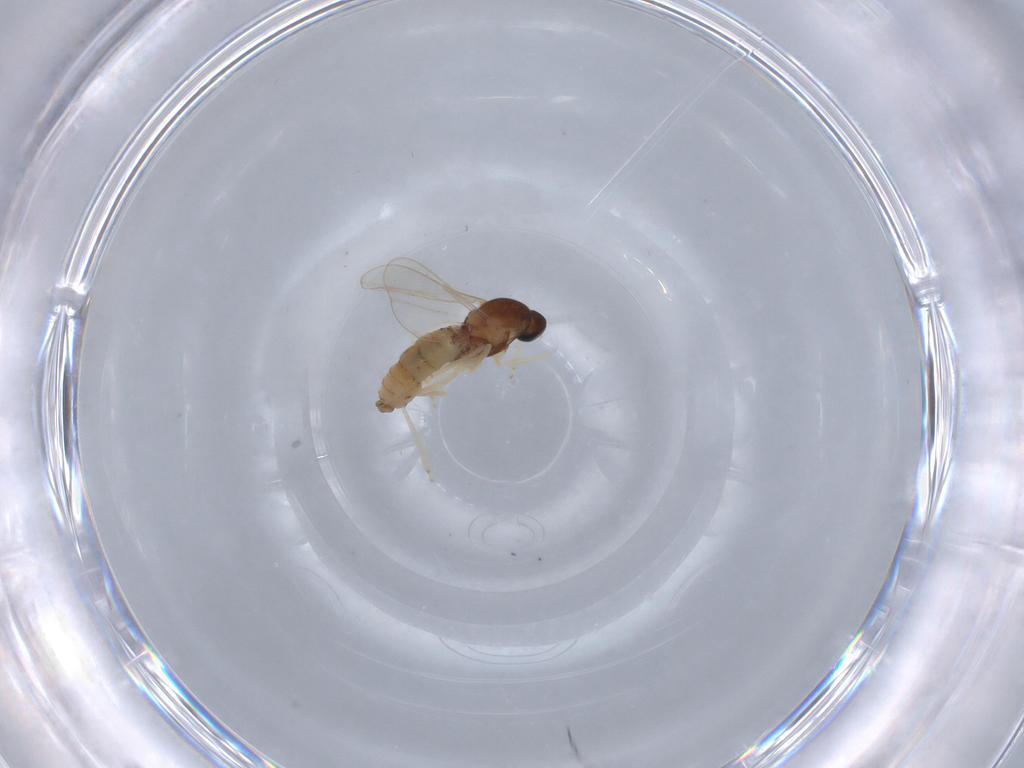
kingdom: Animalia
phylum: Arthropoda
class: Insecta
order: Diptera
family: Cecidomyiidae
